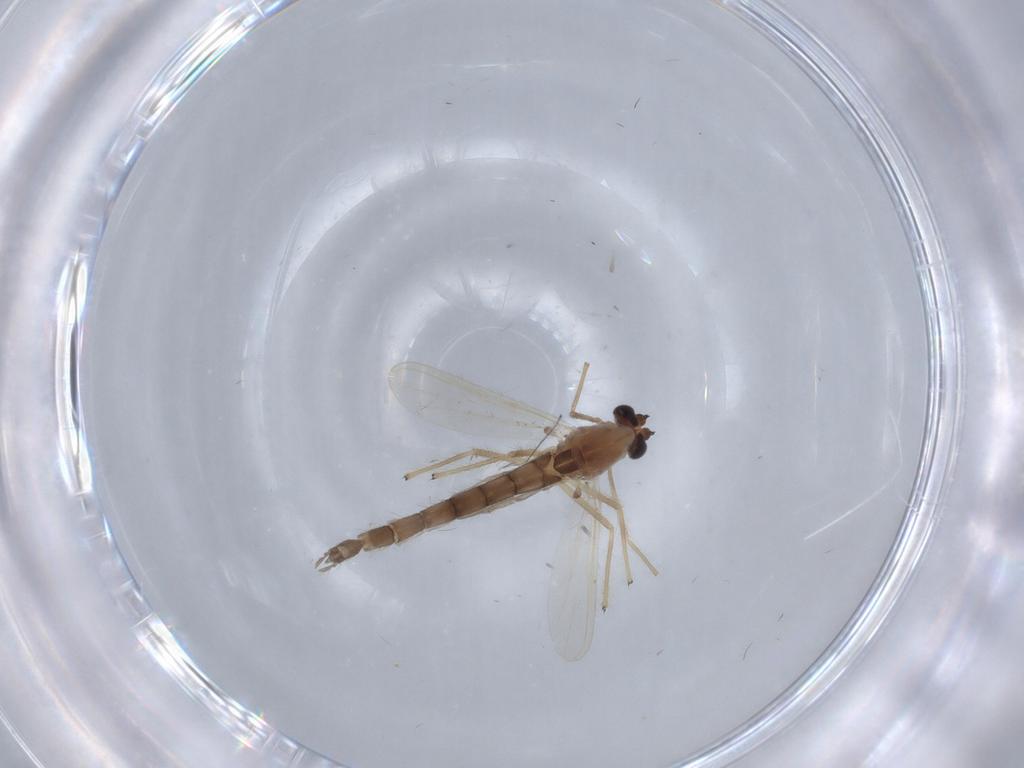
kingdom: Animalia
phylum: Arthropoda
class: Insecta
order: Diptera
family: Chironomidae
